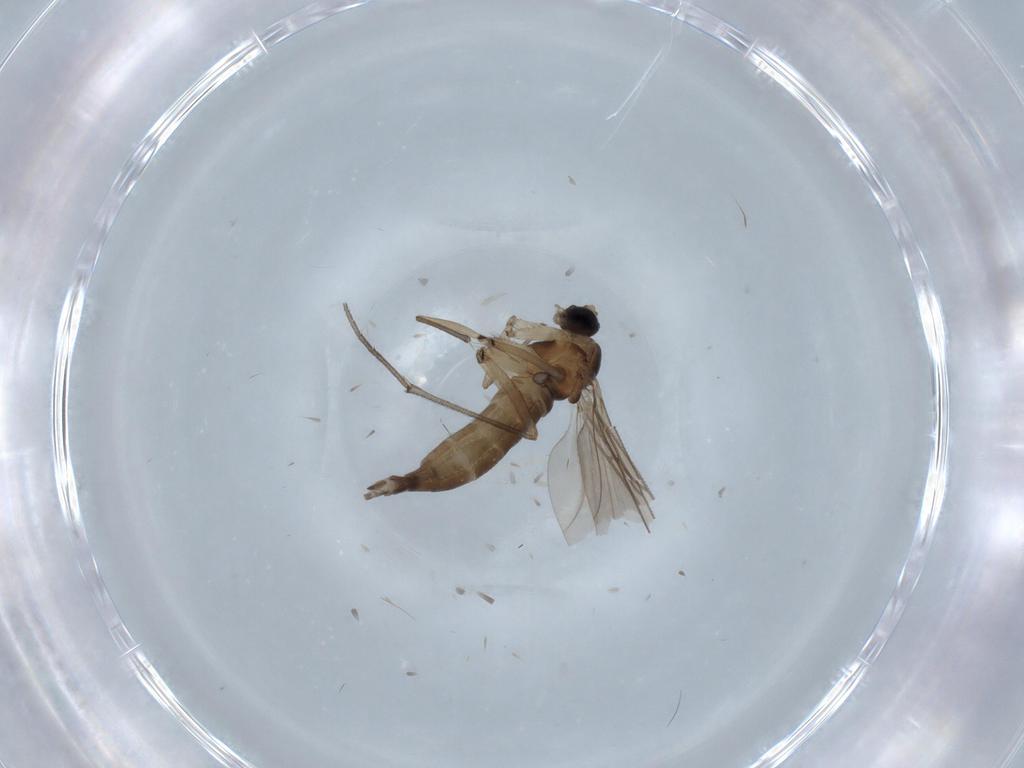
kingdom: Animalia
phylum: Arthropoda
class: Insecta
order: Diptera
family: Sciaridae
